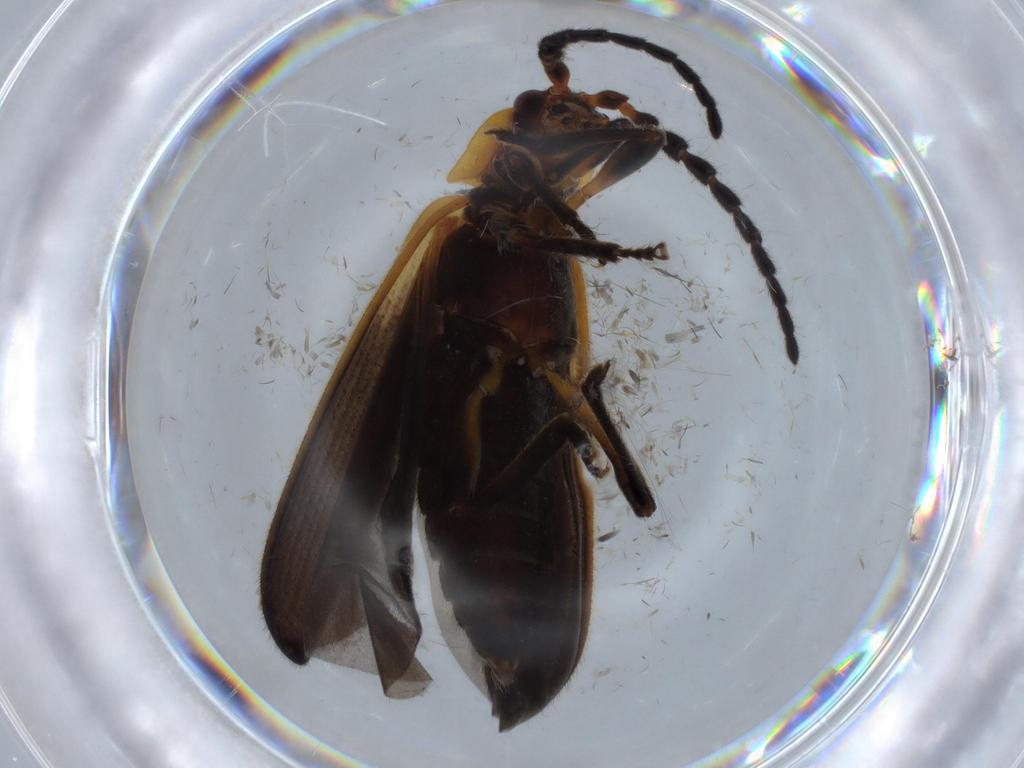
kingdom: Animalia
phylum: Arthropoda
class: Insecta
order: Coleoptera
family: Lycidae
